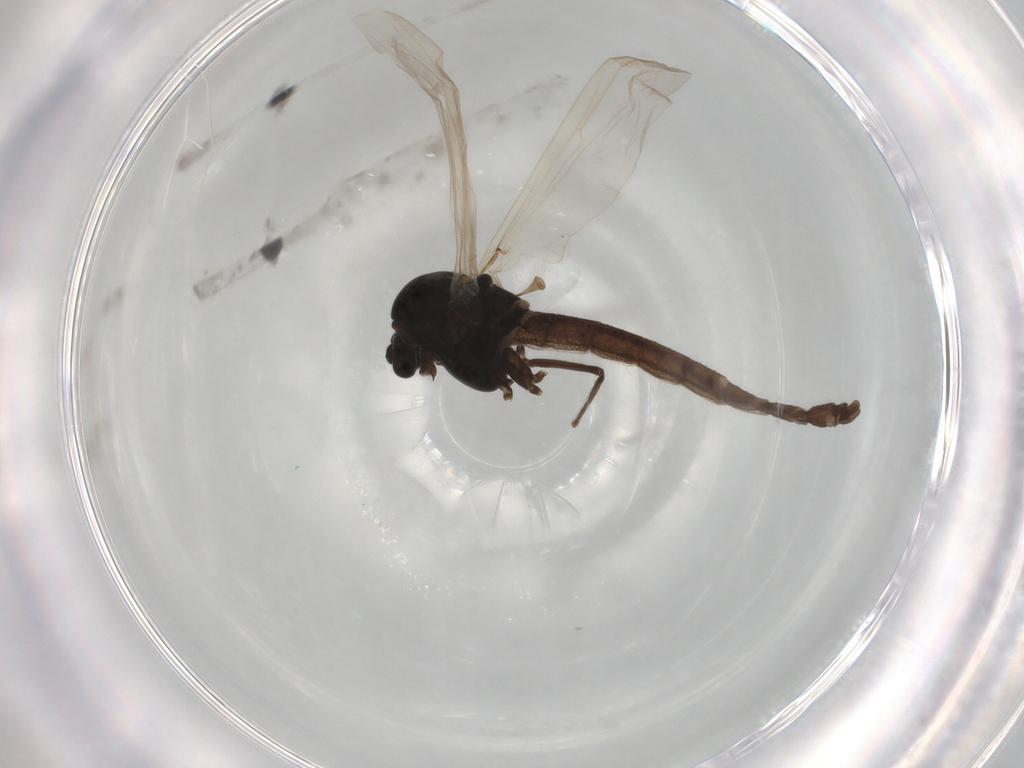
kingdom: Animalia
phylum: Arthropoda
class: Insecta
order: Diptera
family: Chironomidae
